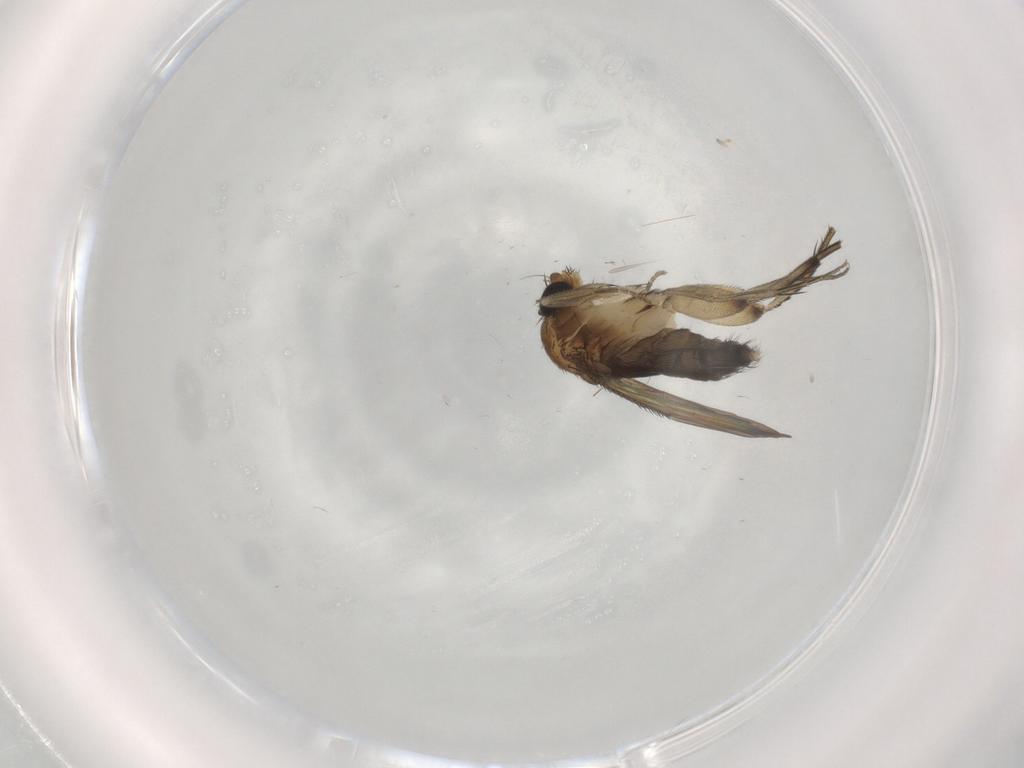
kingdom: Animalia
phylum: Arthropoda
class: Insecta
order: Diptera
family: Phoridae
